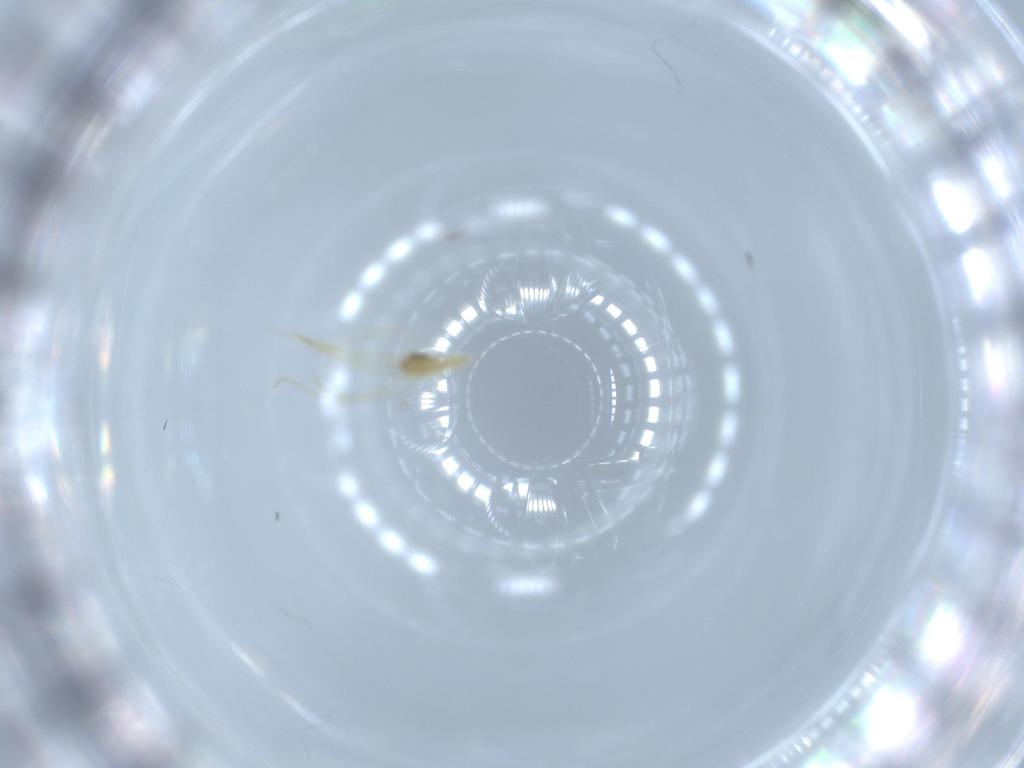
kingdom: Animalia
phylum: Arthropoda
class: Arachnida
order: Trombidiformes
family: Erythraeidae
